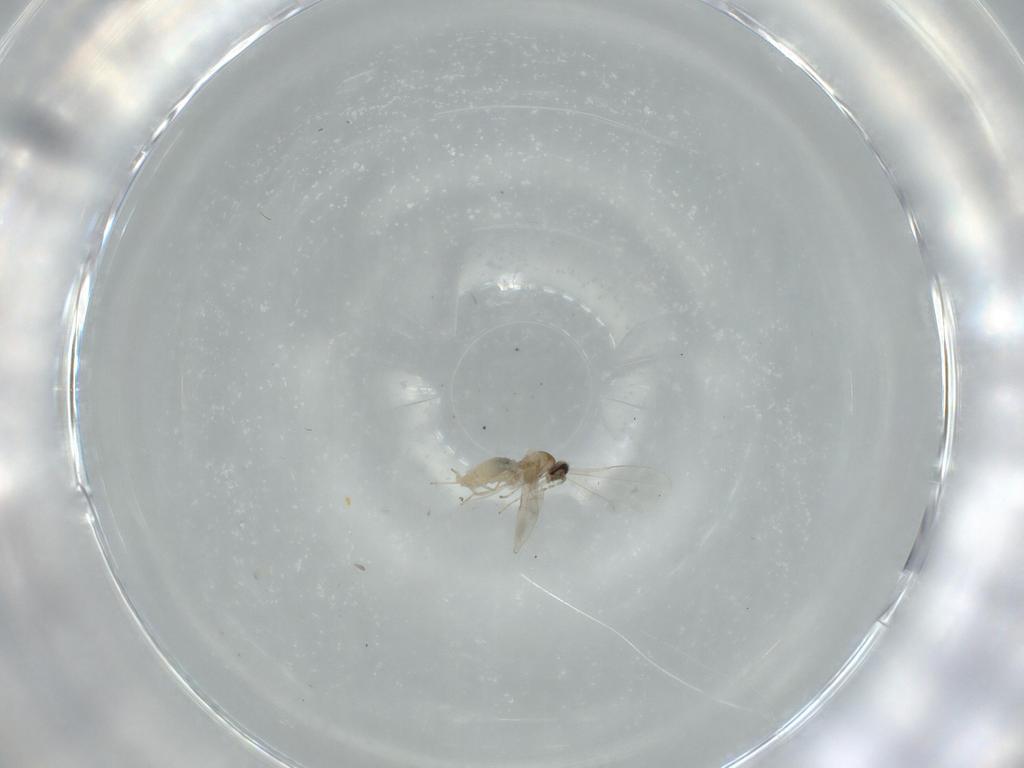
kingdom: Animalia
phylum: Arthropoda
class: Insecta
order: Diptera
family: Cecidomyiidae
